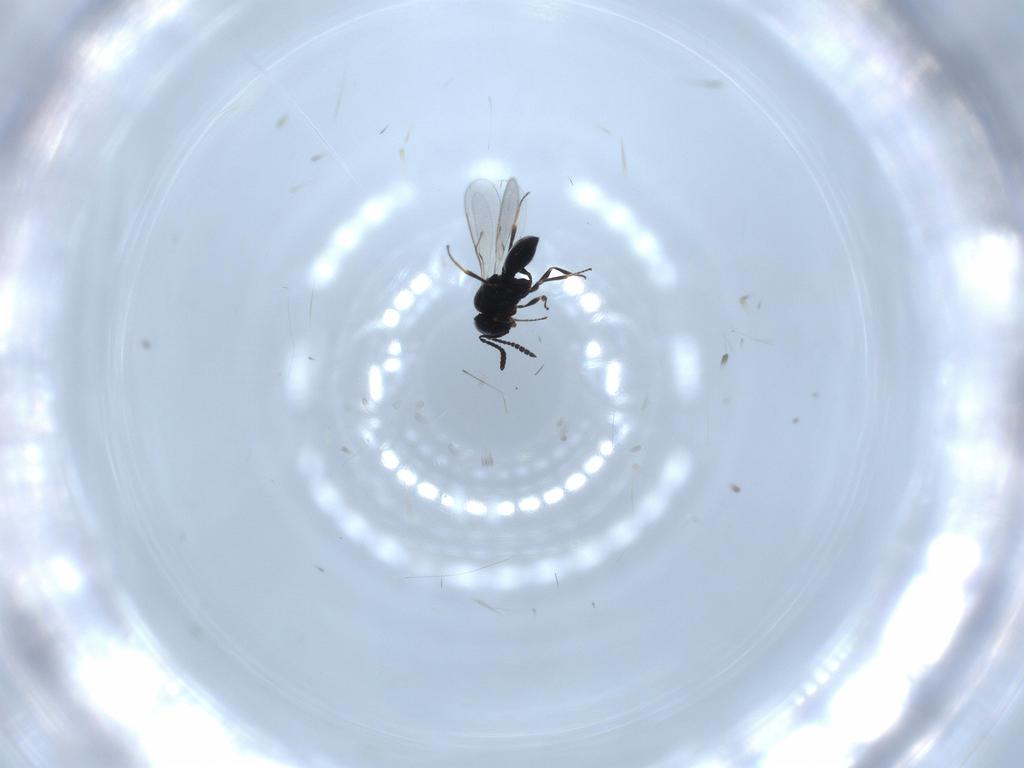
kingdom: Animalia
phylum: Arthropoda
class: Insecta
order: Hymenoptera
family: Scelionidae
